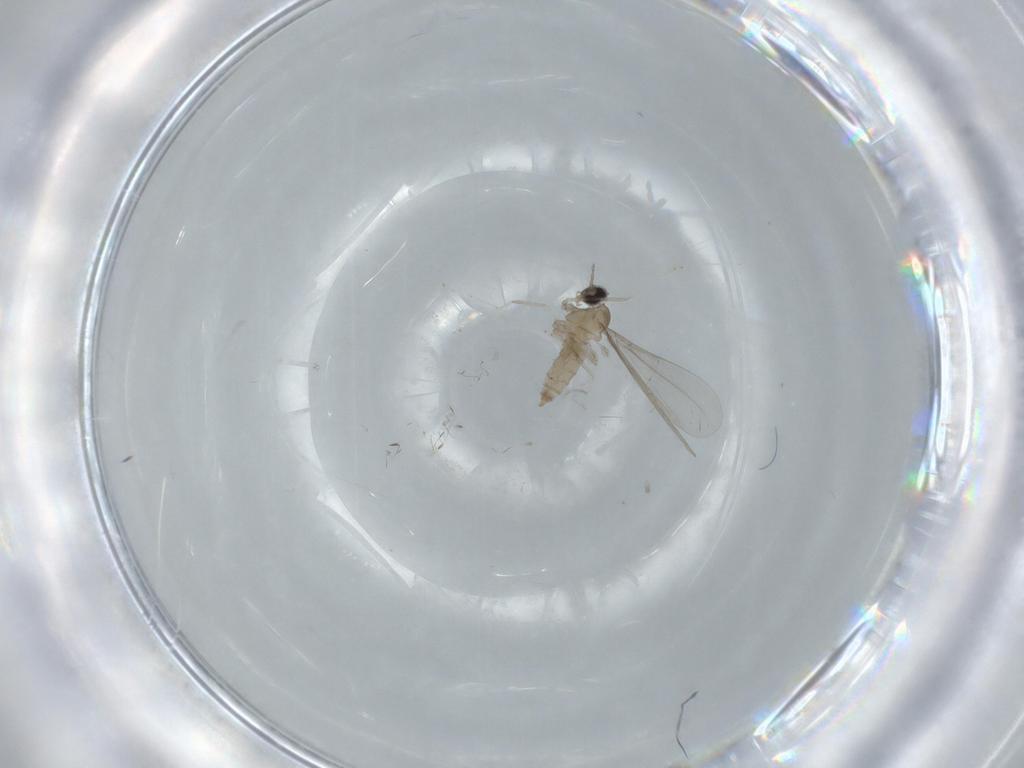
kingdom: Animalia
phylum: Arthropoda
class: Insecta
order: Diptera
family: Cecidomyiidae
